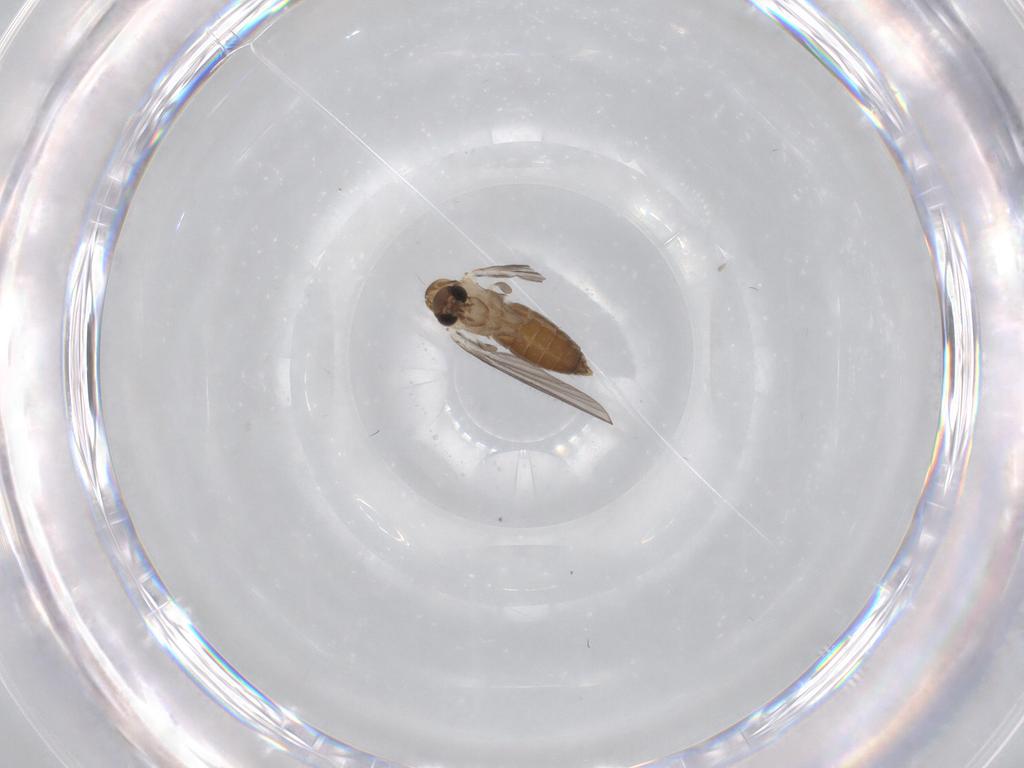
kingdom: Animalia
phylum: Arthropoda
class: Insecta
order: Diptera
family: Psychodidae
